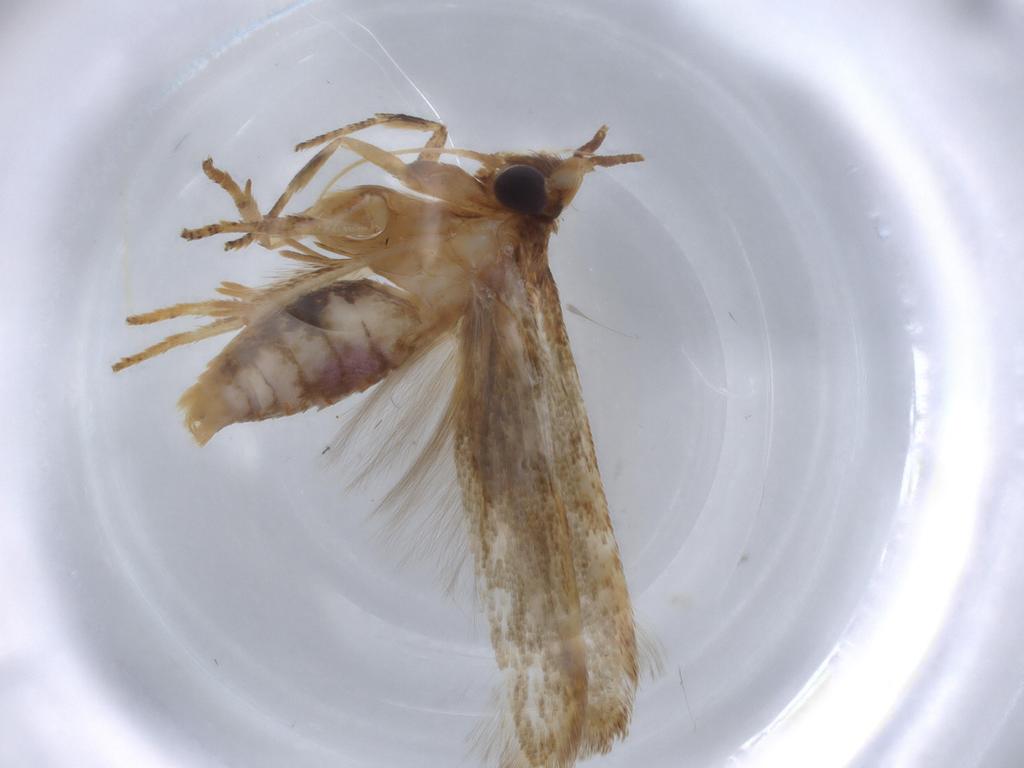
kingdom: Animalia
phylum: Arthropoda
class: Insecta
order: Lepidoptera
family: Blastobasidae
